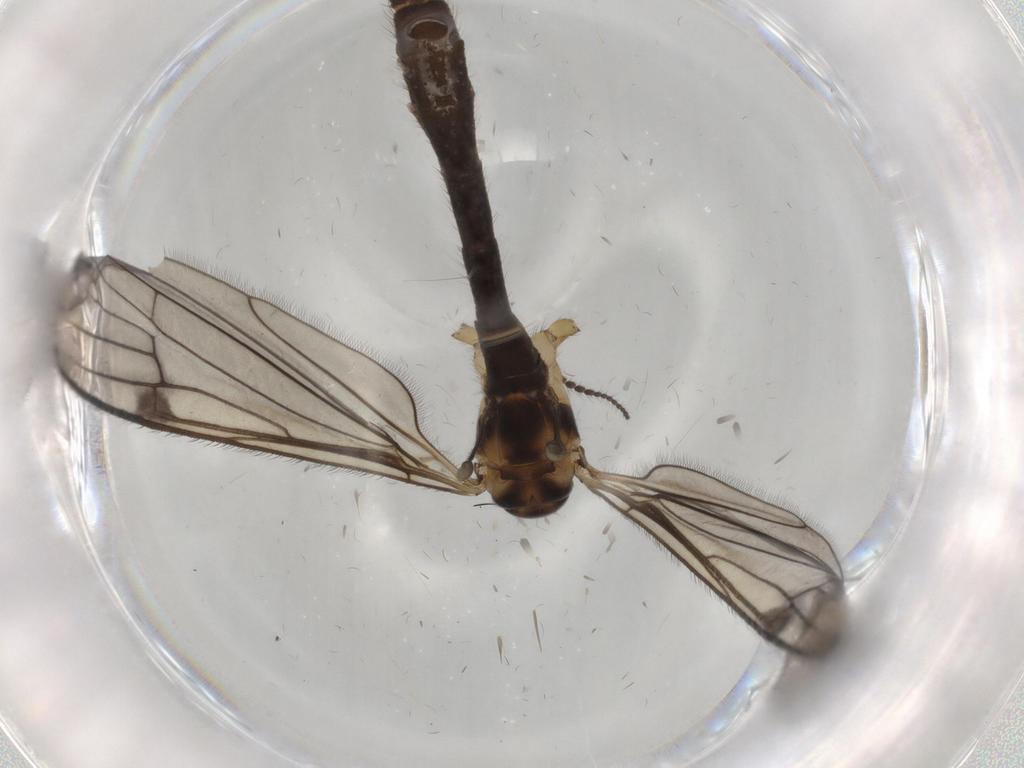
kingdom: Animalia
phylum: Arthropoda
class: Insecta
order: Diptera
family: Limoniidae
